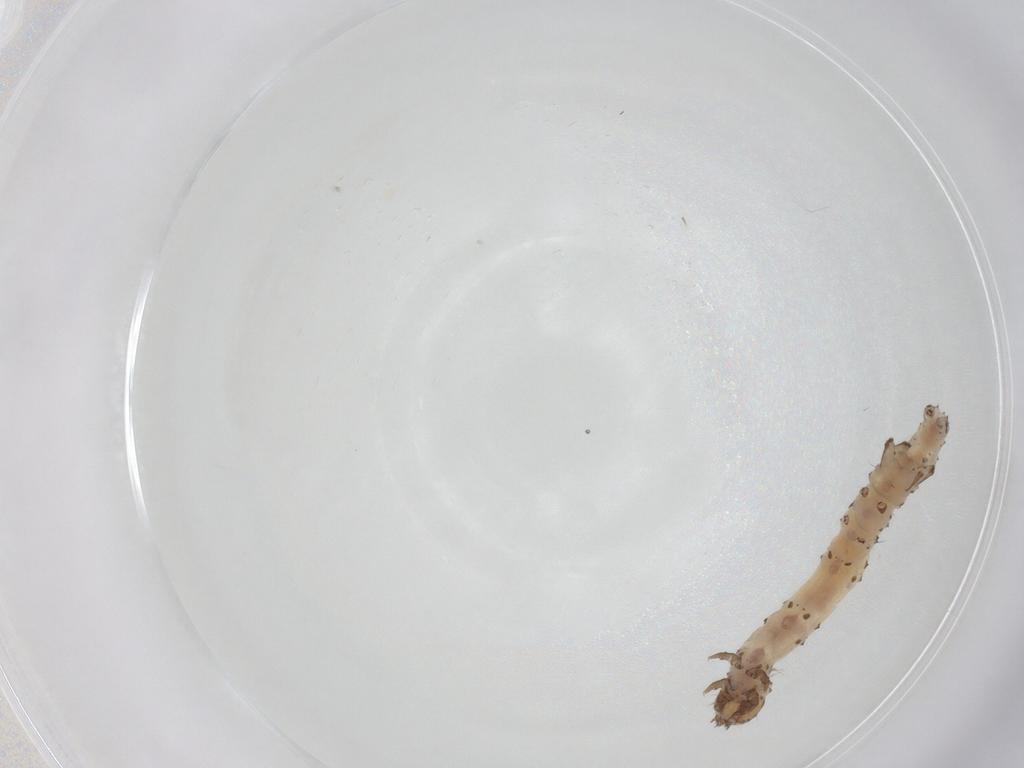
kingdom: Animalia
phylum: Arthropoda
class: Insecta
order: Lepidoptera
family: Erebidae
